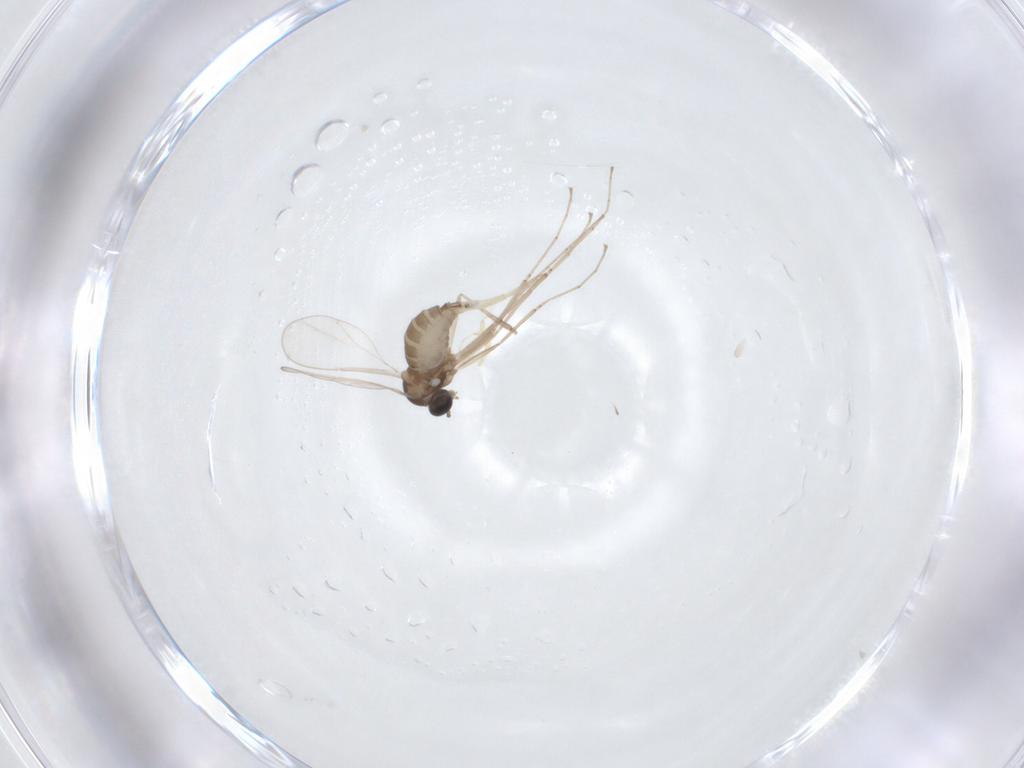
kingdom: Animalia
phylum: Arthropoda
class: Insecta
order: Diptera
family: Cecidomyiidae
